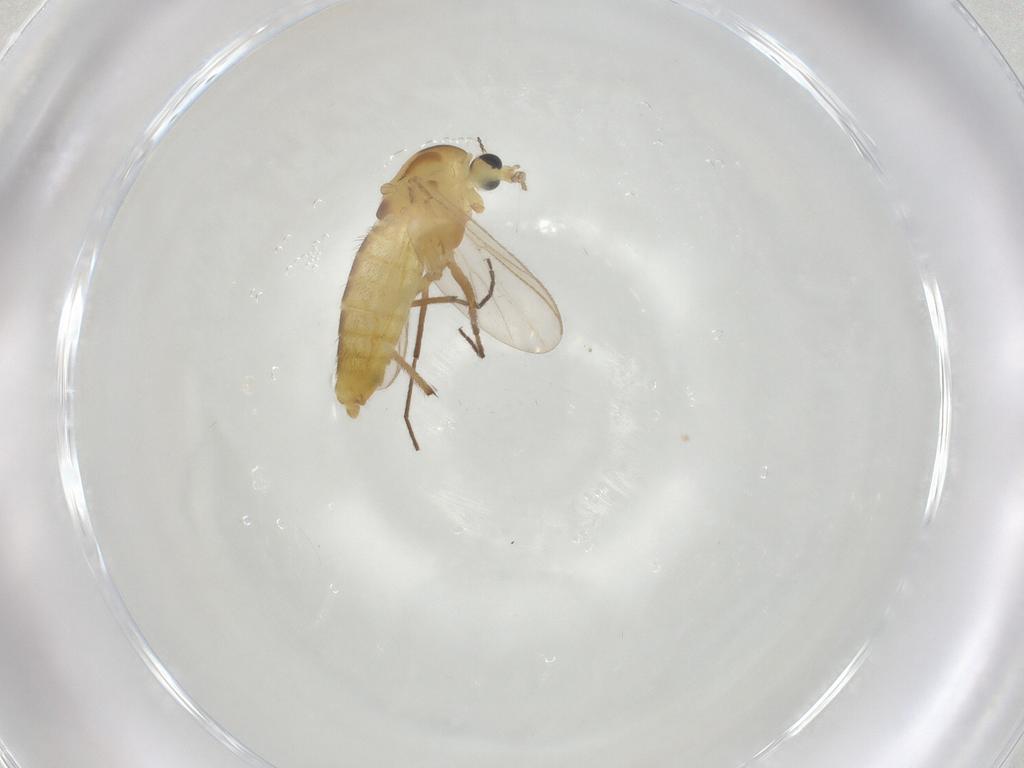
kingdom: Animalia
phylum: Arthropoda
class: Insecta
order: Diptera
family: Chironomidae
